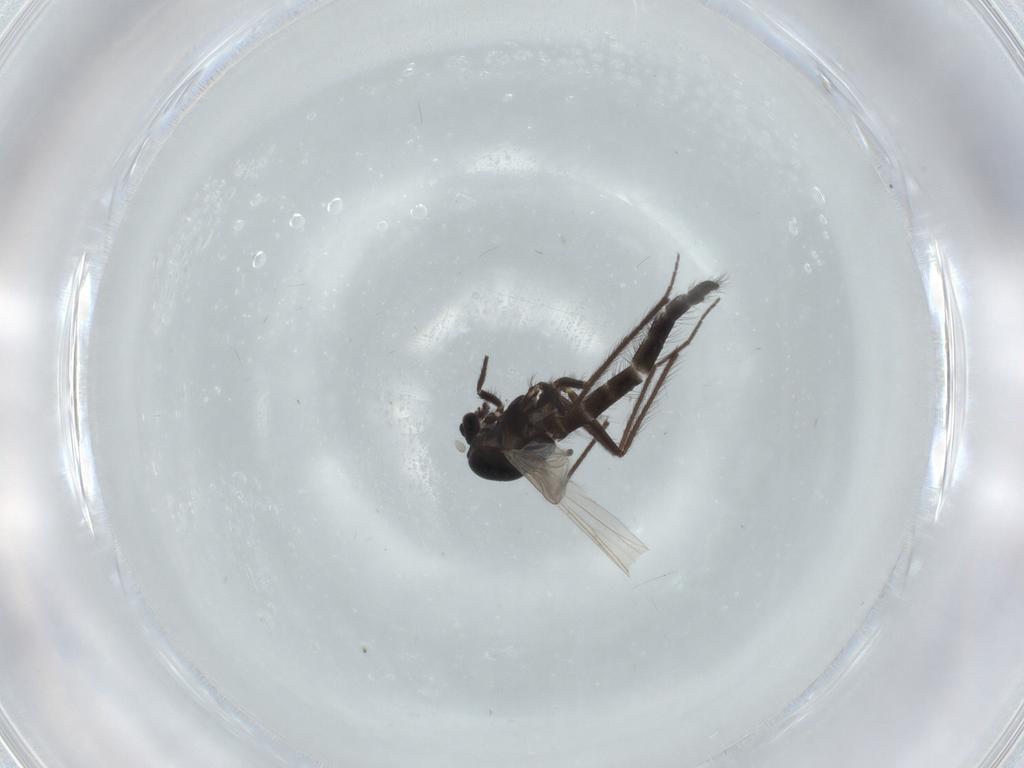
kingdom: Animalia
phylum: Arthropoda
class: Insecta
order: Diptera
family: Chironomidae
